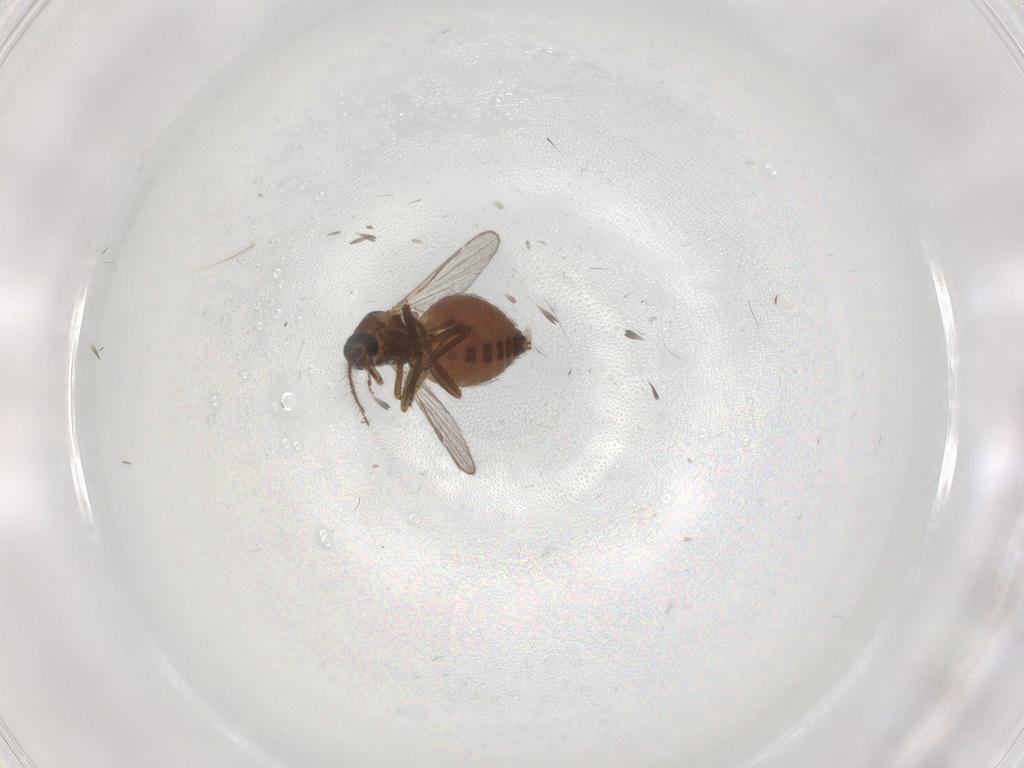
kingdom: Animalia
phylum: Arthropoda
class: Insecta
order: Diptera
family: Ceratopogonidae
